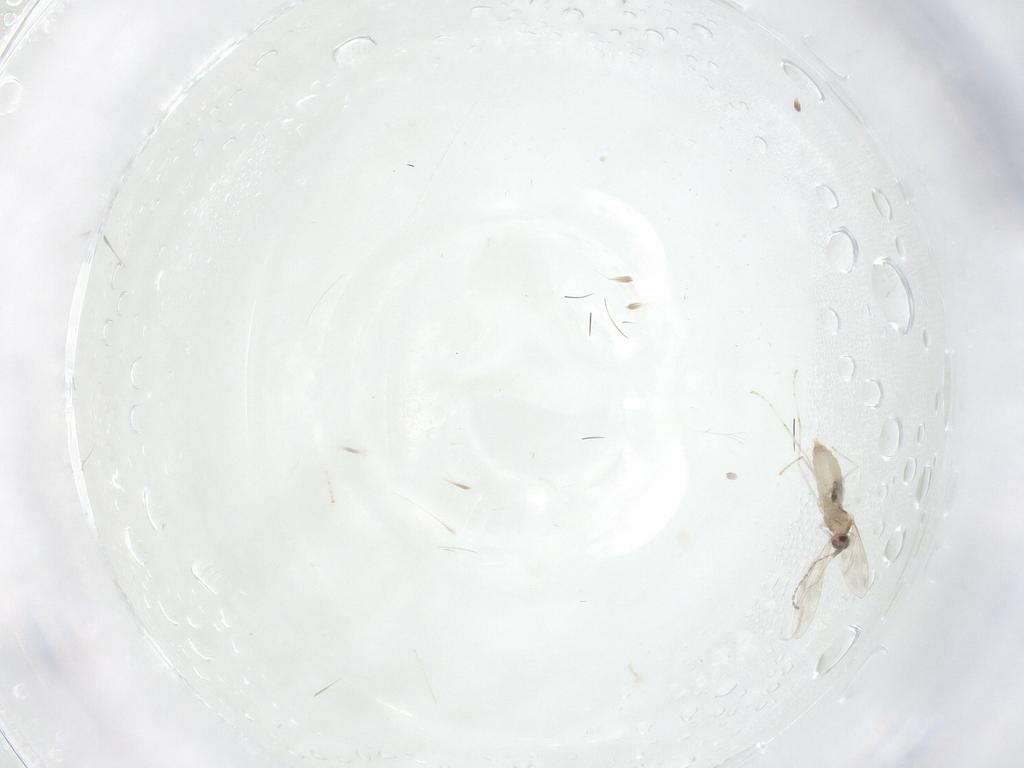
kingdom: Animalia
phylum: Arthropoda
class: Insecta
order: Diptera
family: Cecidomyiidae
